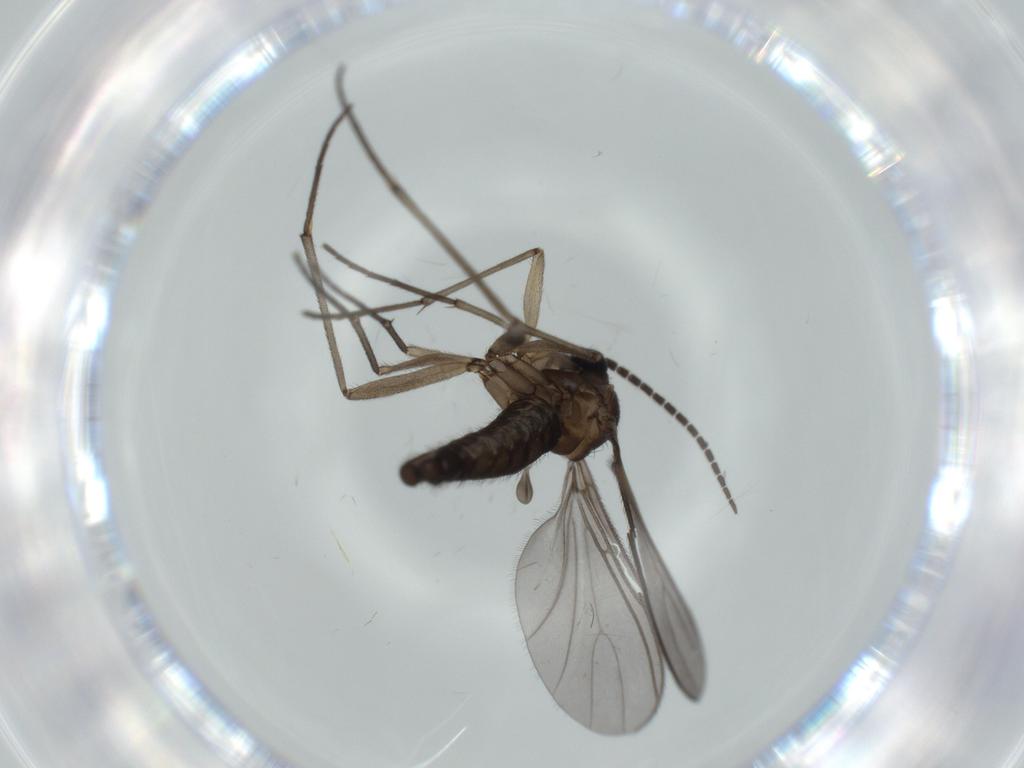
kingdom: Animalia
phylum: Arthropoda
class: Insecta
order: Diptera
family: Sciaridae
